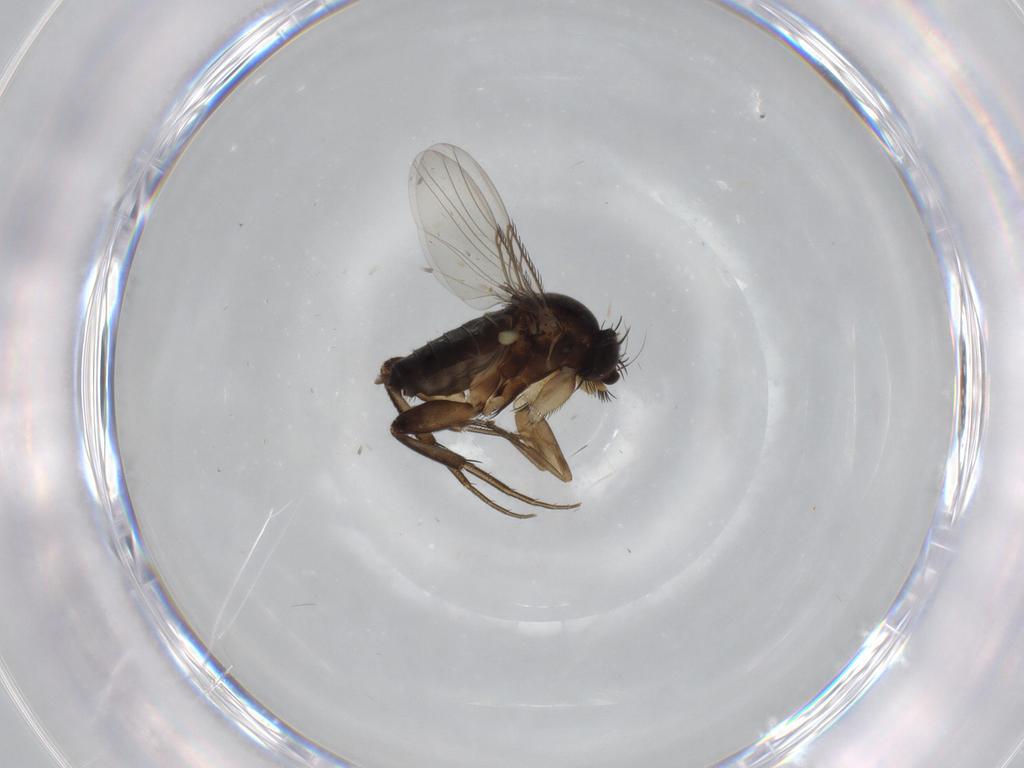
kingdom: Animalia
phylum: Arthropoda
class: Insecta
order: Diptera
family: Phoridae
